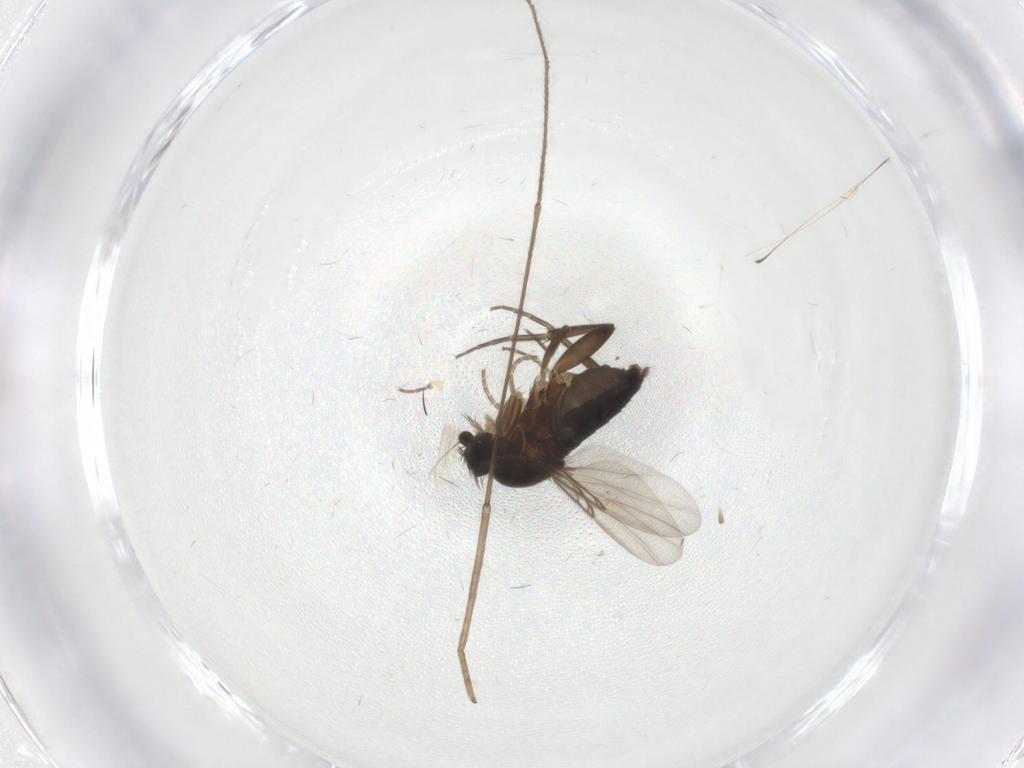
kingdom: Animalia
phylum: Arthropoda
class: Insecta
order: Diptera
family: Phoridae
